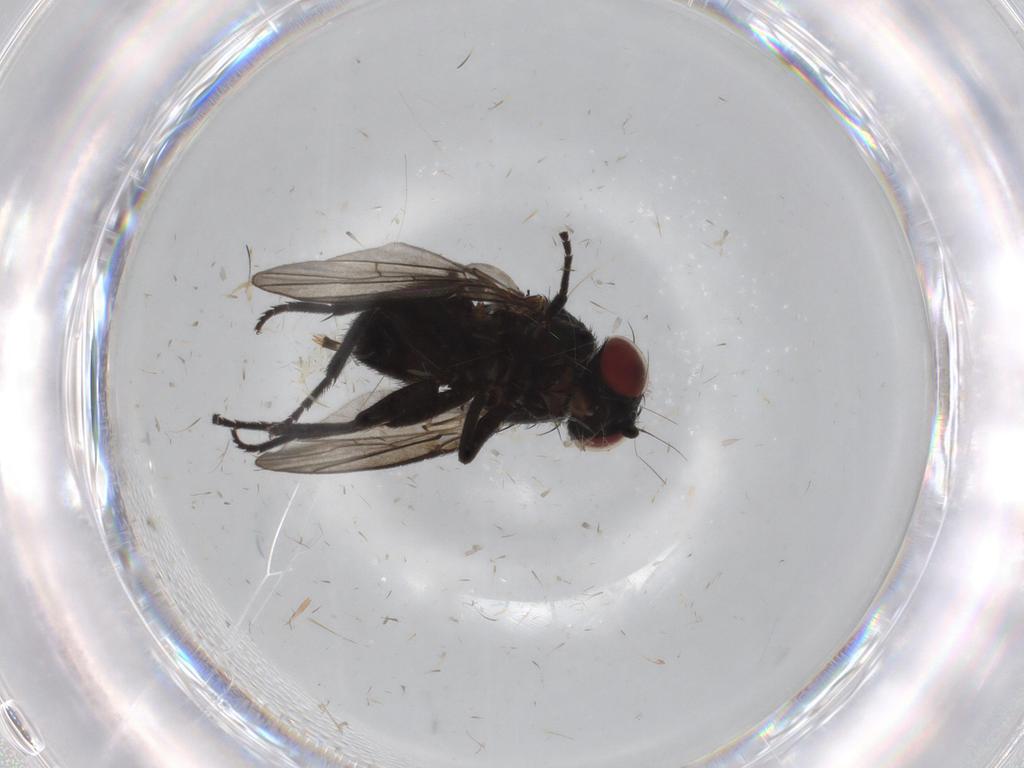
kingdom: Animalia
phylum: Arthropoda
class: Insecta
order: Diptera
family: Agromyzidae
